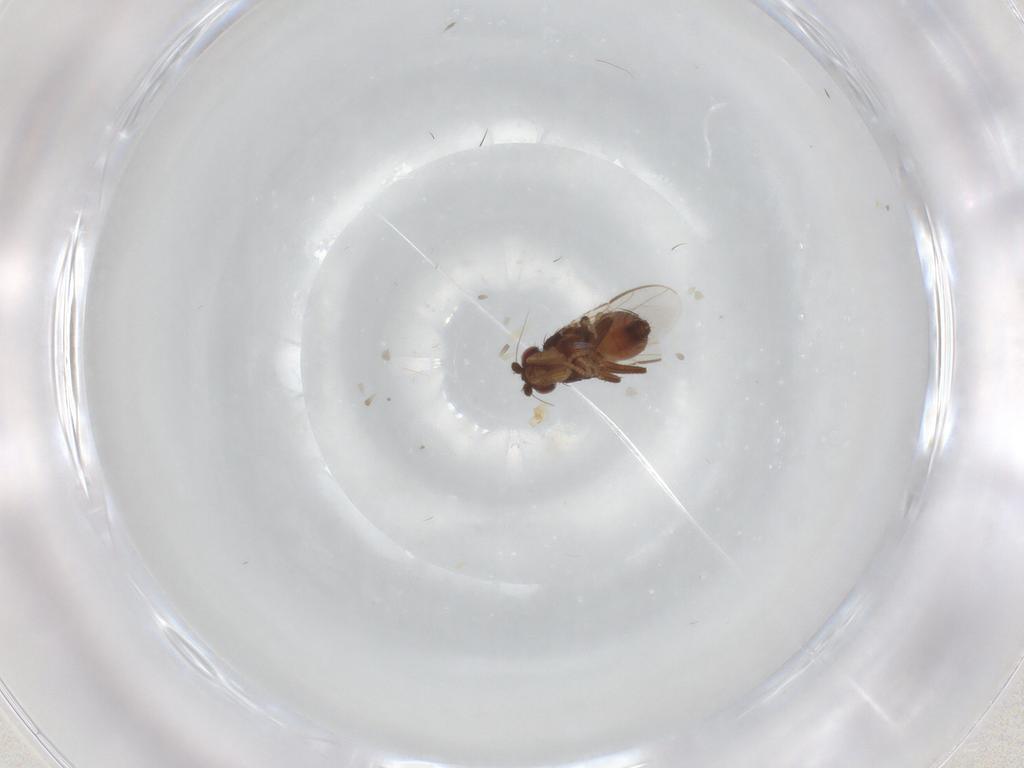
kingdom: Animalia
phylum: Arthropoda
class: Insecta
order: Diptera
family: Sphaeroceridae
